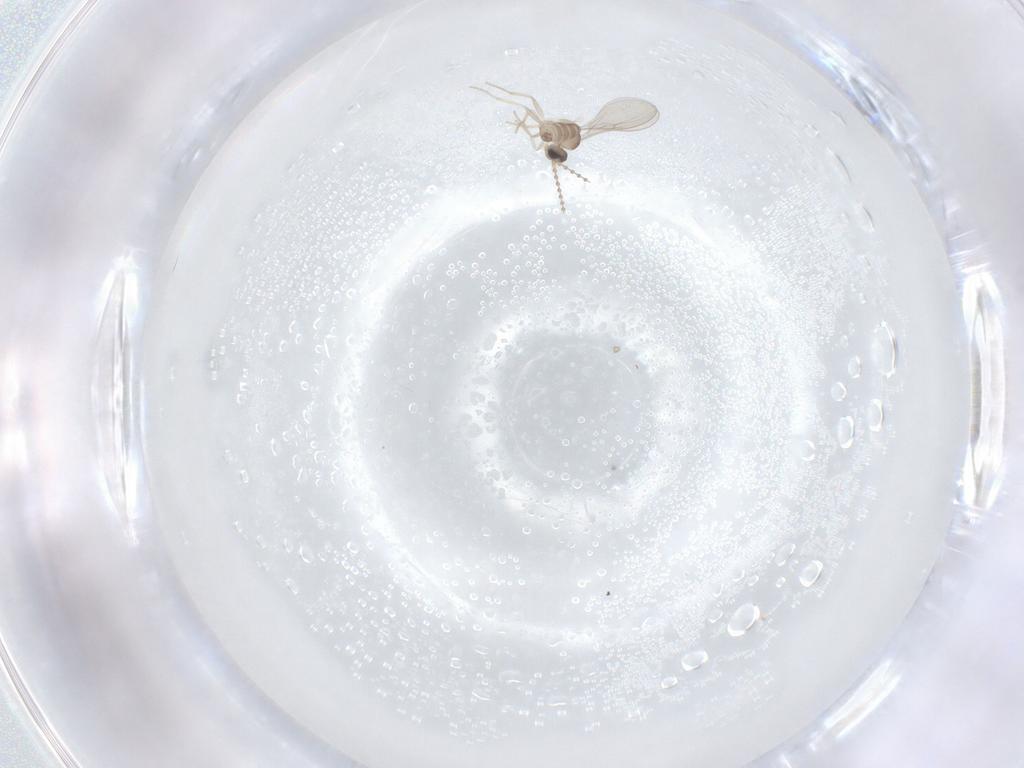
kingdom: Animalia
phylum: Arthropoda
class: Insecta
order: Diptera
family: Cecidomyiidae
